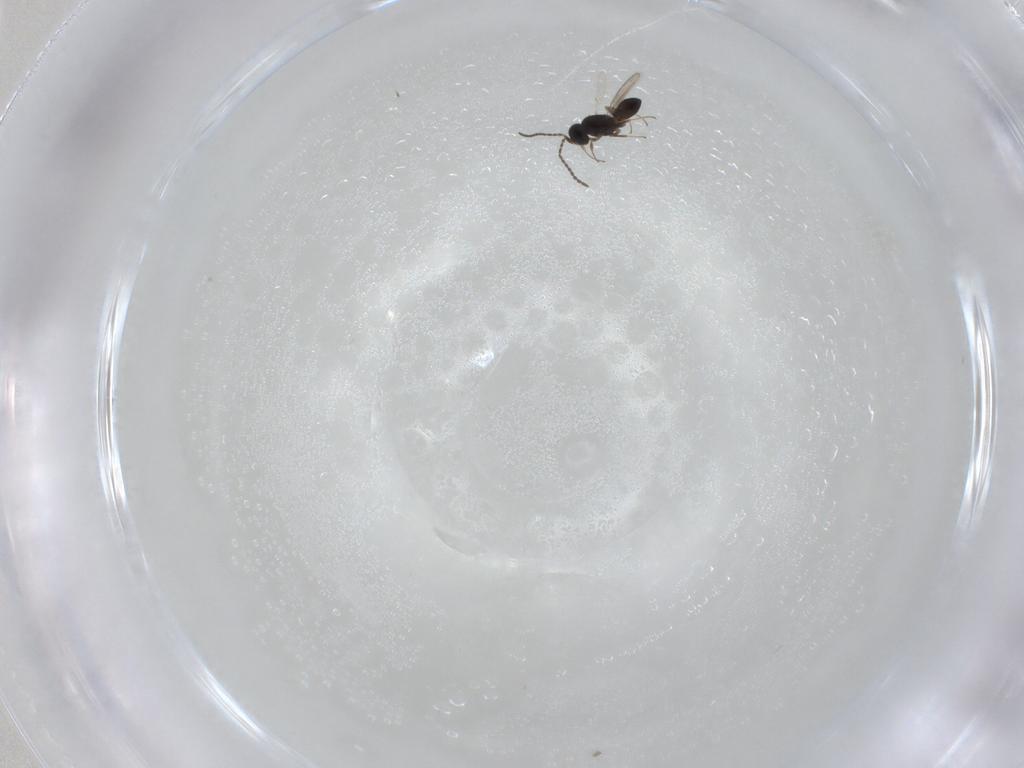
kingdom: Animalia
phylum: Arthropoda
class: Insecta
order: Hymenoptera
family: Scelionidae
